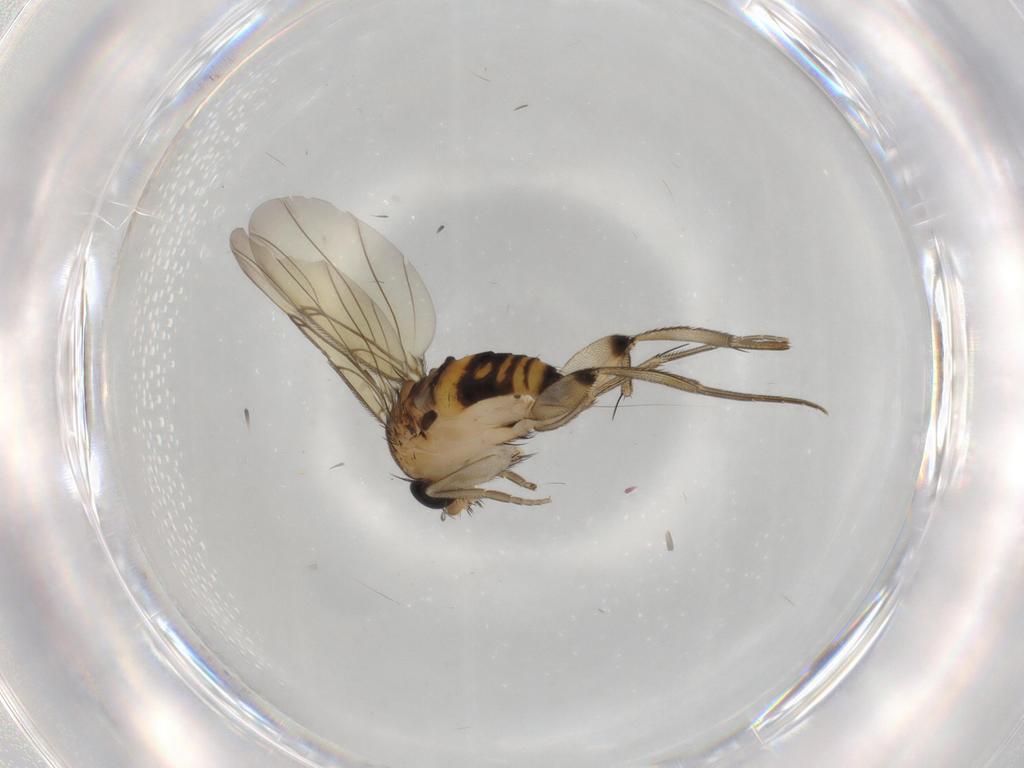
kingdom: Animalia
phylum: Arthropoda
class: Insecta
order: Diptera
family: Phoridae
